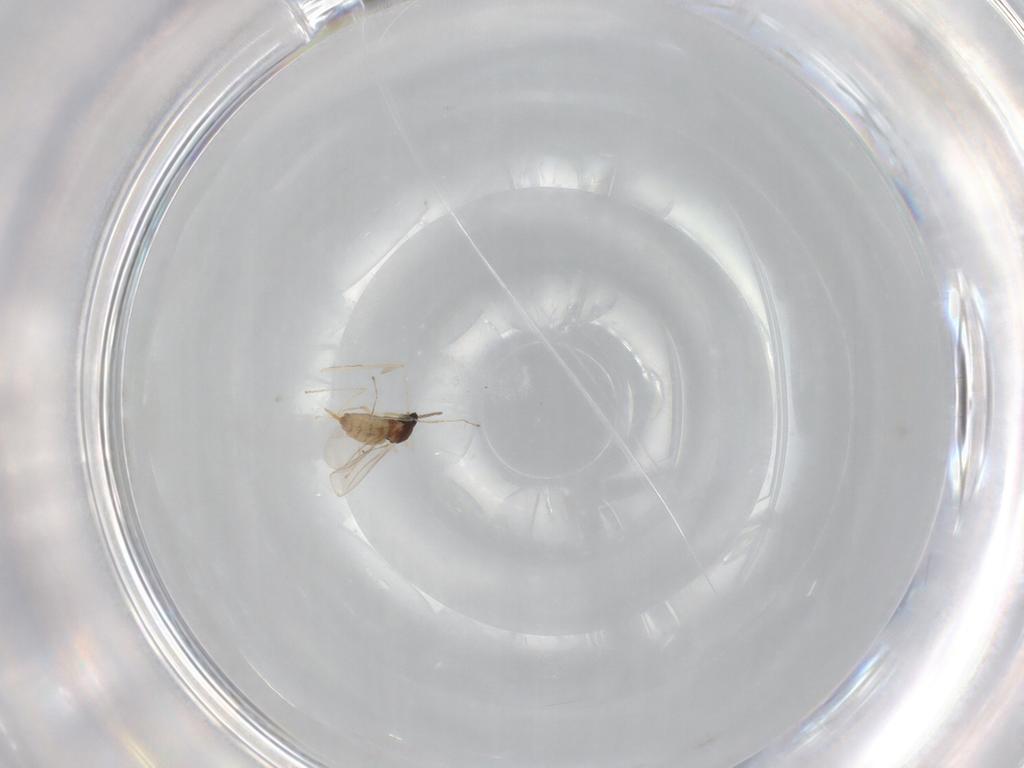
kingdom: Animalia
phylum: Arthropoda
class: Insecta
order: Diptera
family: Cecidomyiidae
